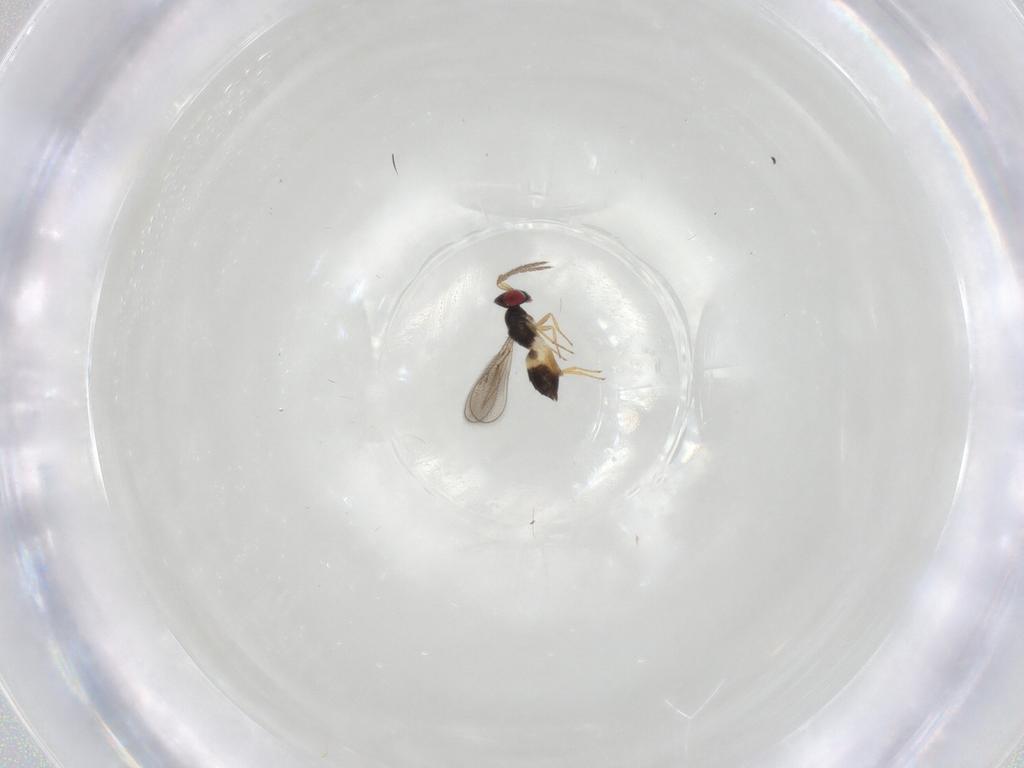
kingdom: Animalia
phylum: Arthropoda
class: Insecta
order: Hymenoptera
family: Eulophidae
